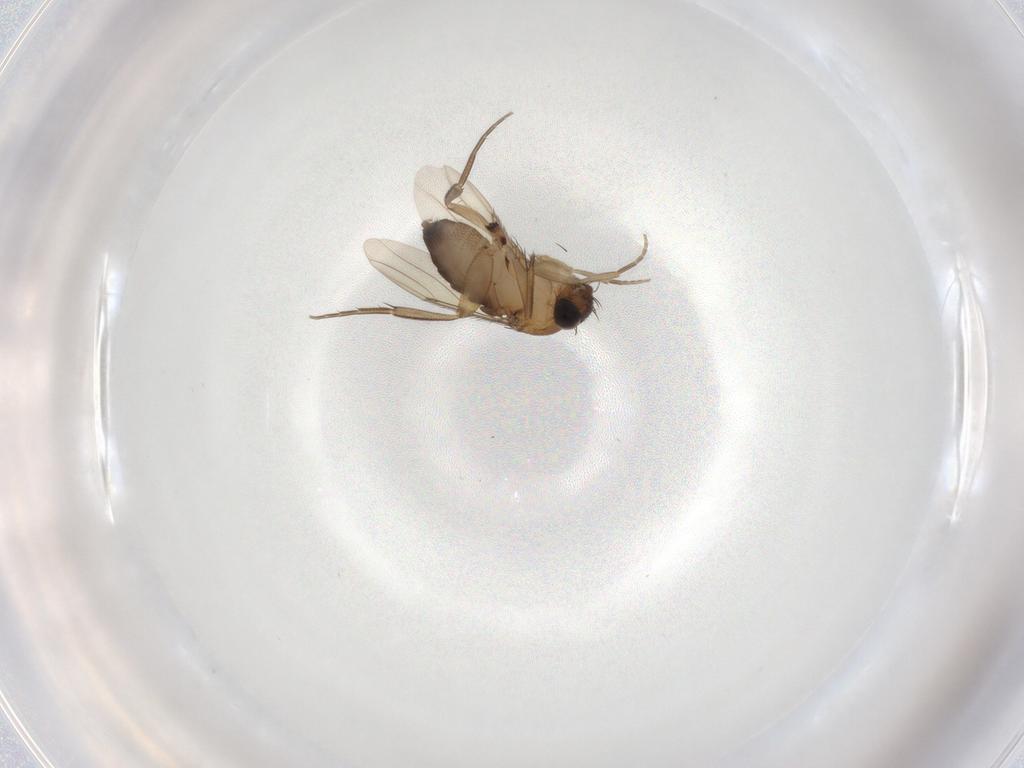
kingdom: Animalia
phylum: Arthropoda
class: Insecta
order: Diptera
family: Phoridae
